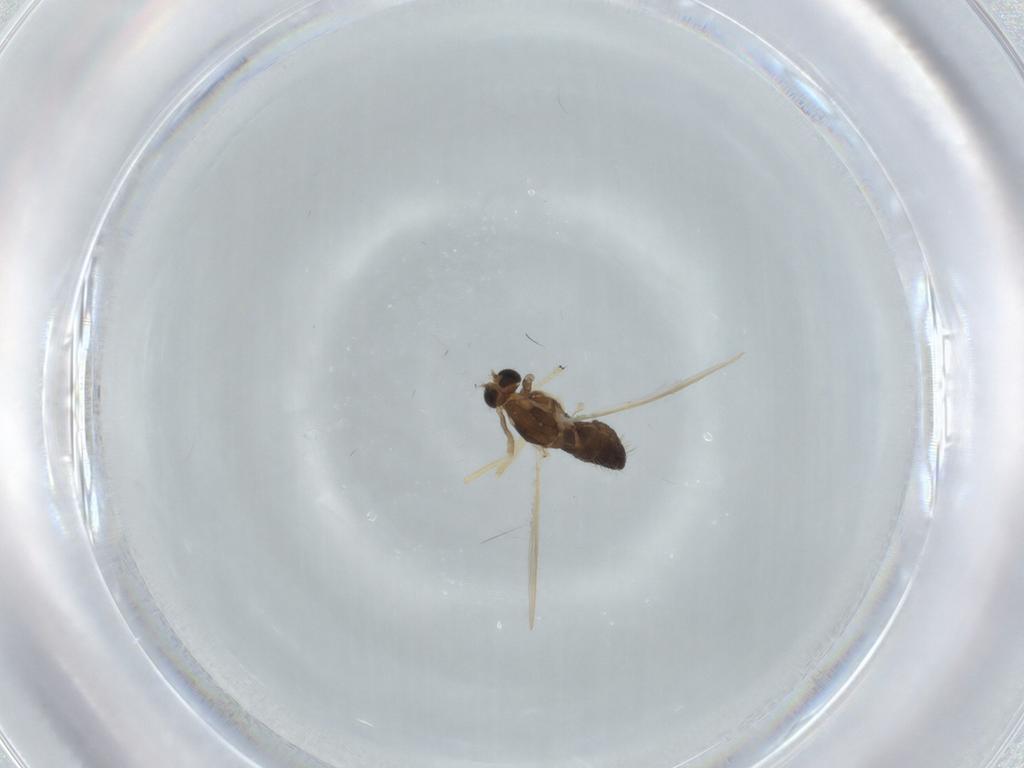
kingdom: Animalia
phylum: Arthropoda
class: Insecta
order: Diptera
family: Chironomidae
